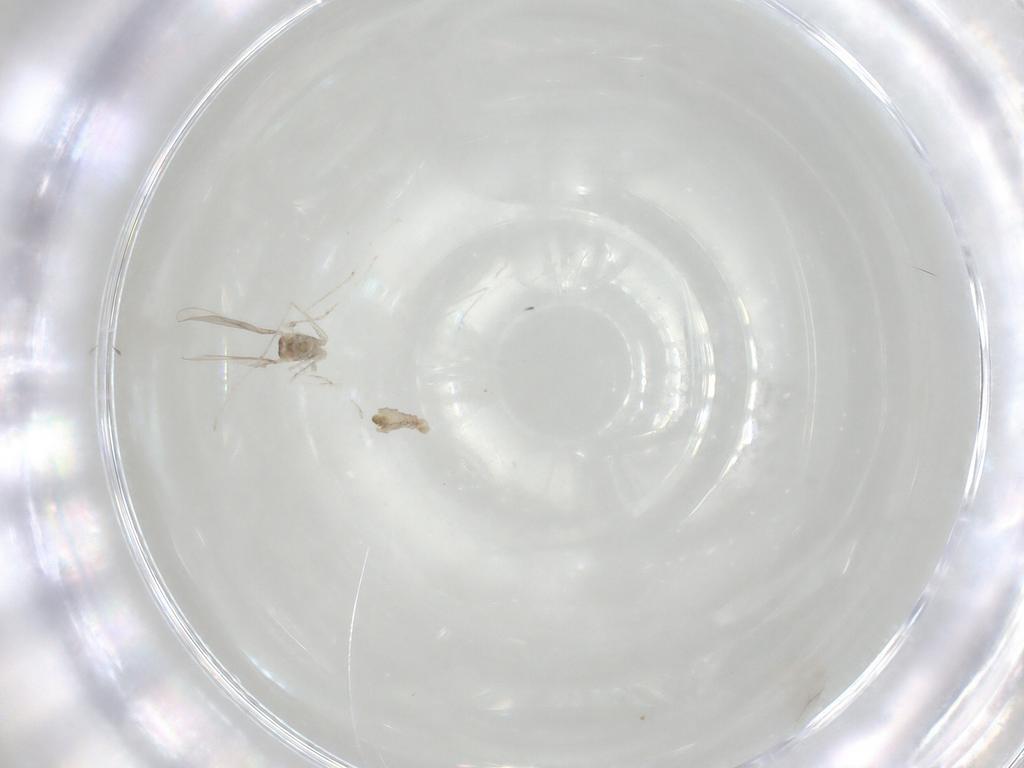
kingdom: Animalia
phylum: Arthropoda
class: Insecta
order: Diptera
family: Cecidomyiidae
